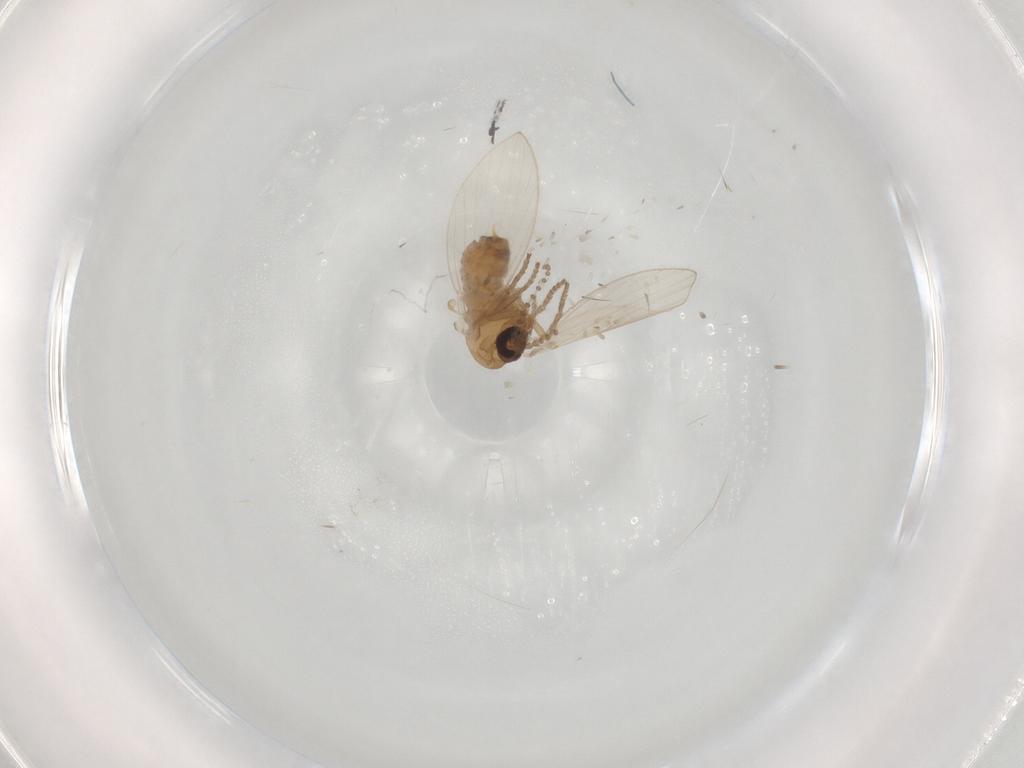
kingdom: Animalia
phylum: Arthropoda
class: Insecta
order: Diptera
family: Psychodidae
